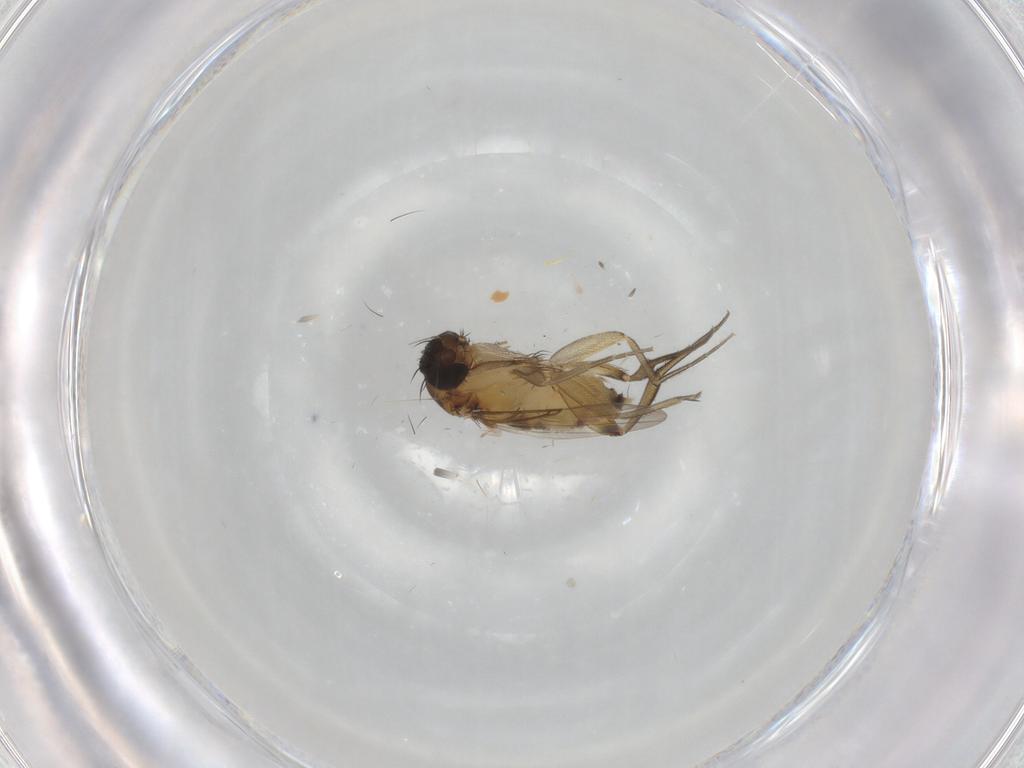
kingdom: Animalia
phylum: Arthropoda
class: Insecta
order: Diptera
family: Phoridae
